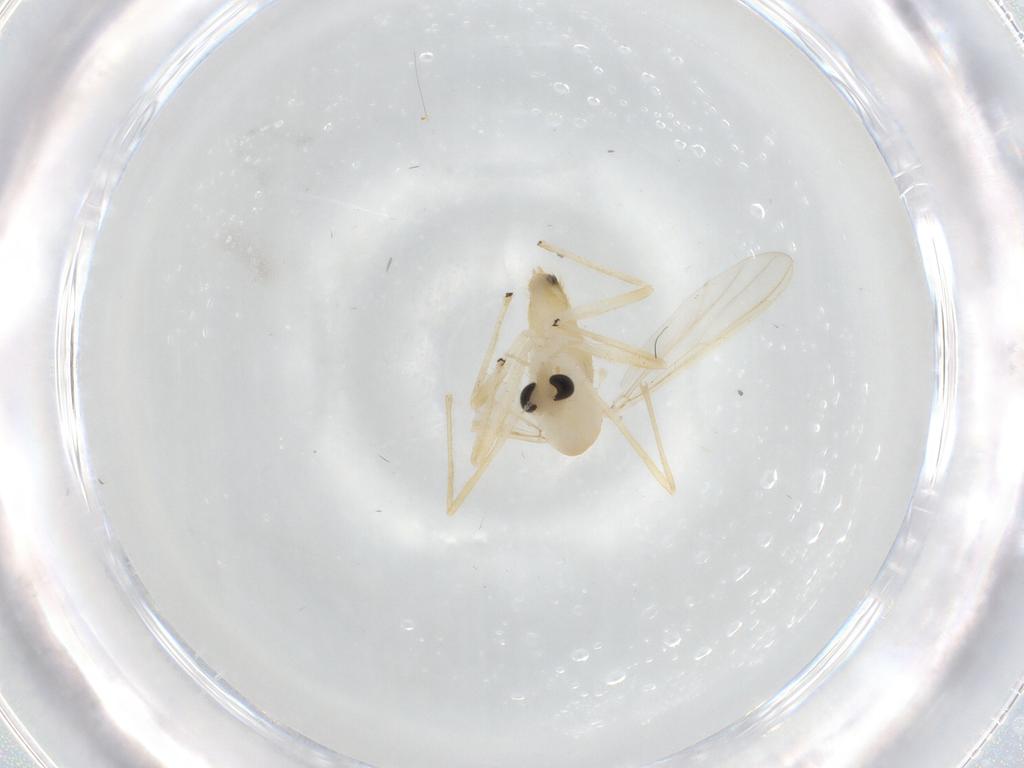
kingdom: Animalia
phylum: Arthropoda
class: Insecta
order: Diptera
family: Chironomidae
